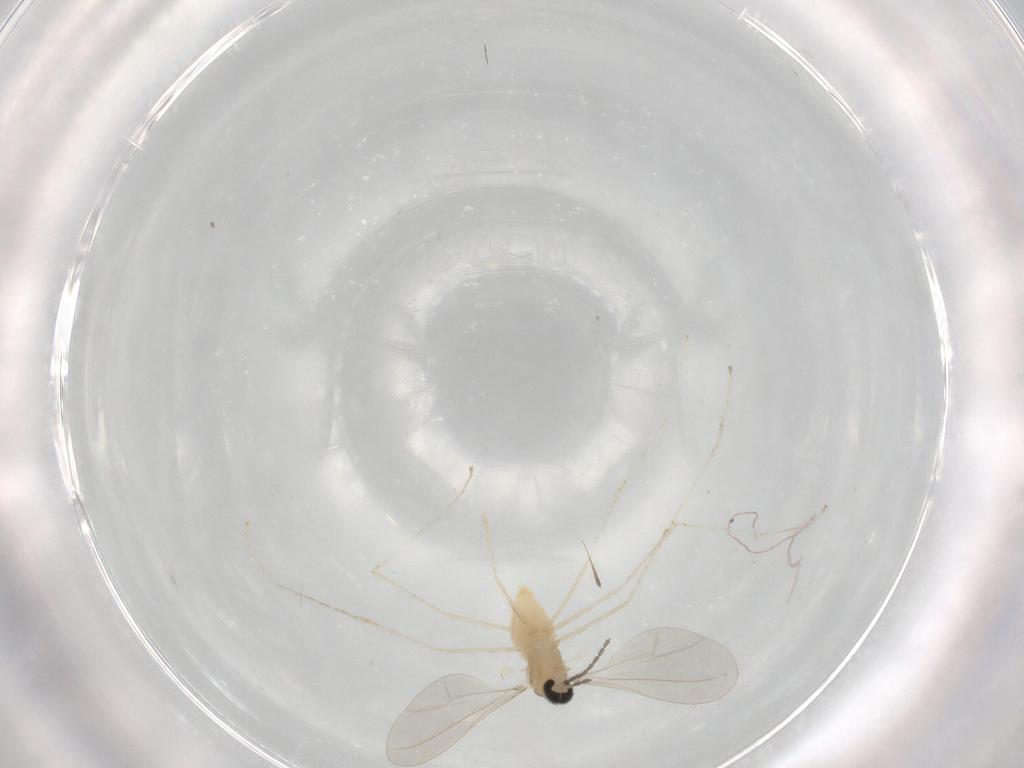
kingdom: Animalia
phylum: Arthropoda
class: Insecta
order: Diptera
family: Cecidomyiidae
